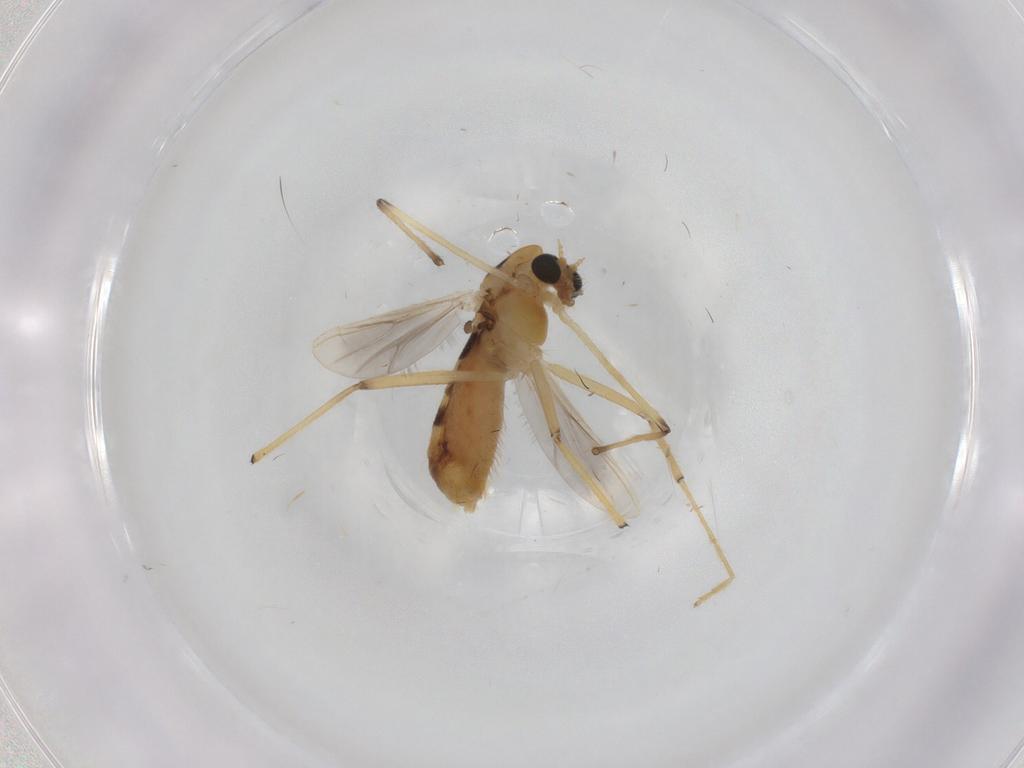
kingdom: Animalia
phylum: Arthropoda
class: Insecta
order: Diptera
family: Chironomidae
